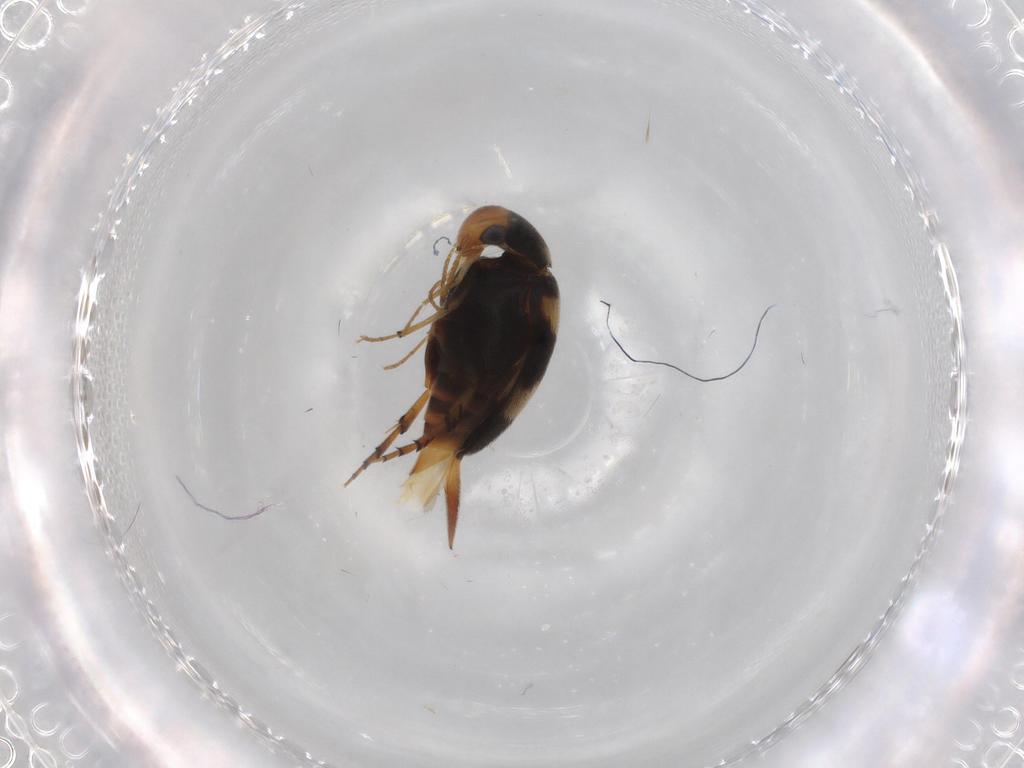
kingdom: Animalia
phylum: Arthropoda
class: Insecta
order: Coleoptera
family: Mordellidae
